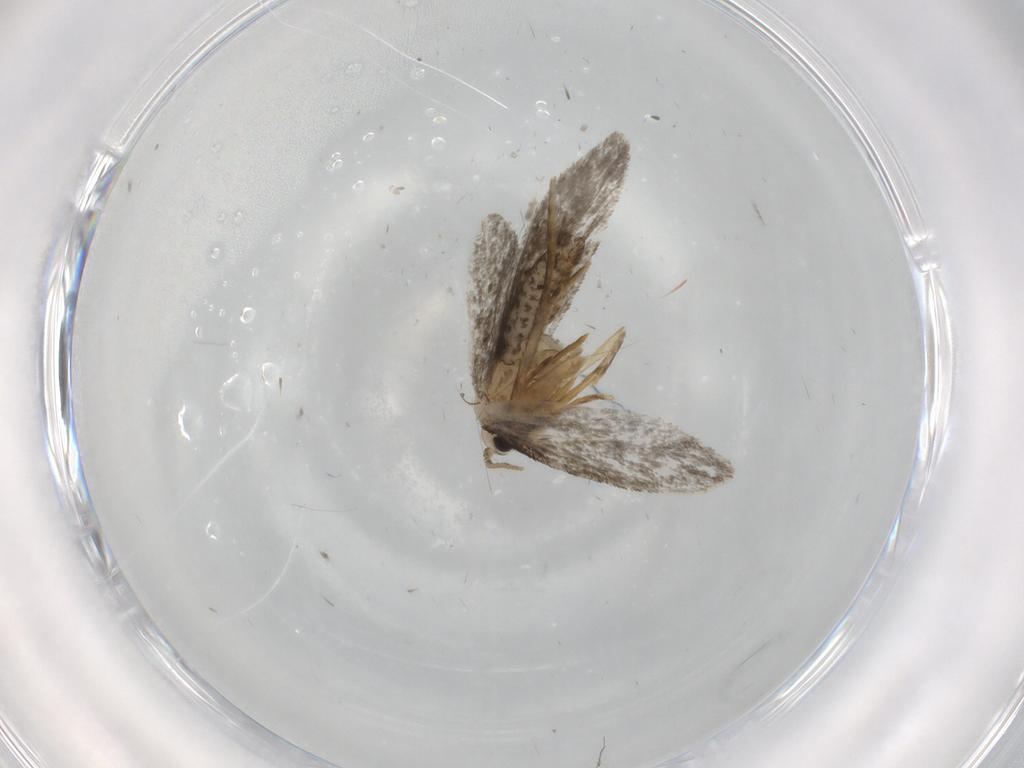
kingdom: Animalia
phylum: Arthropoda
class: Insecta
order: Lepidoptera
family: Psychidae
